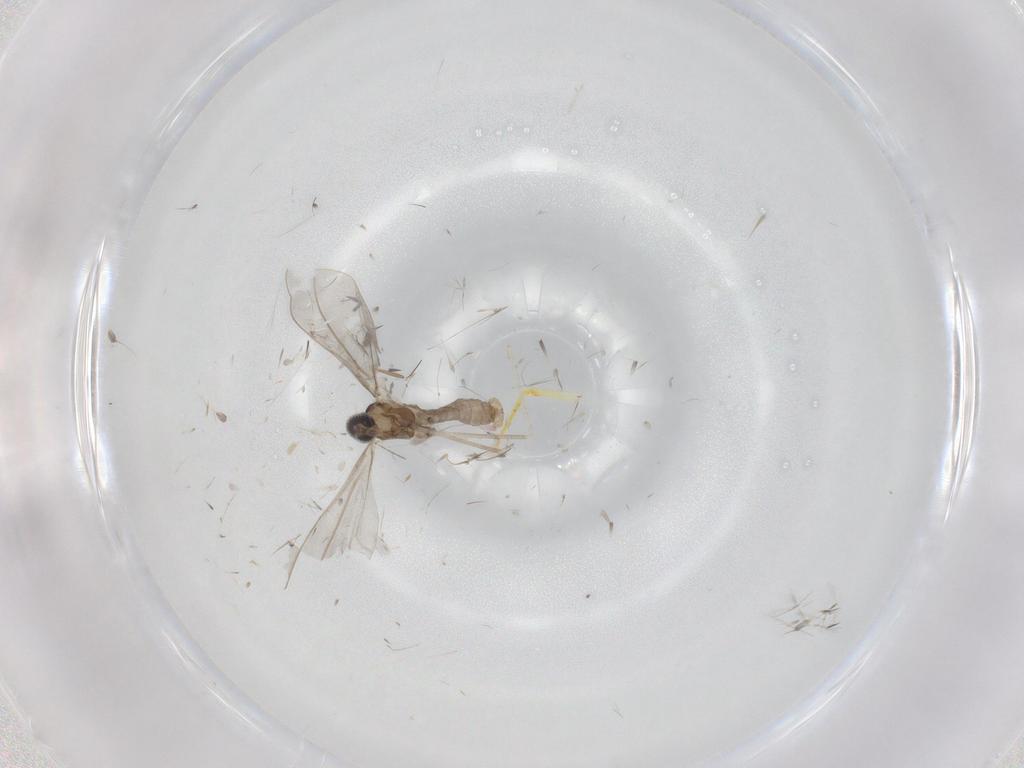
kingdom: Animalia
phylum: Arthropoda
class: Insecta
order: Diptera
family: Cecidomyiidae
